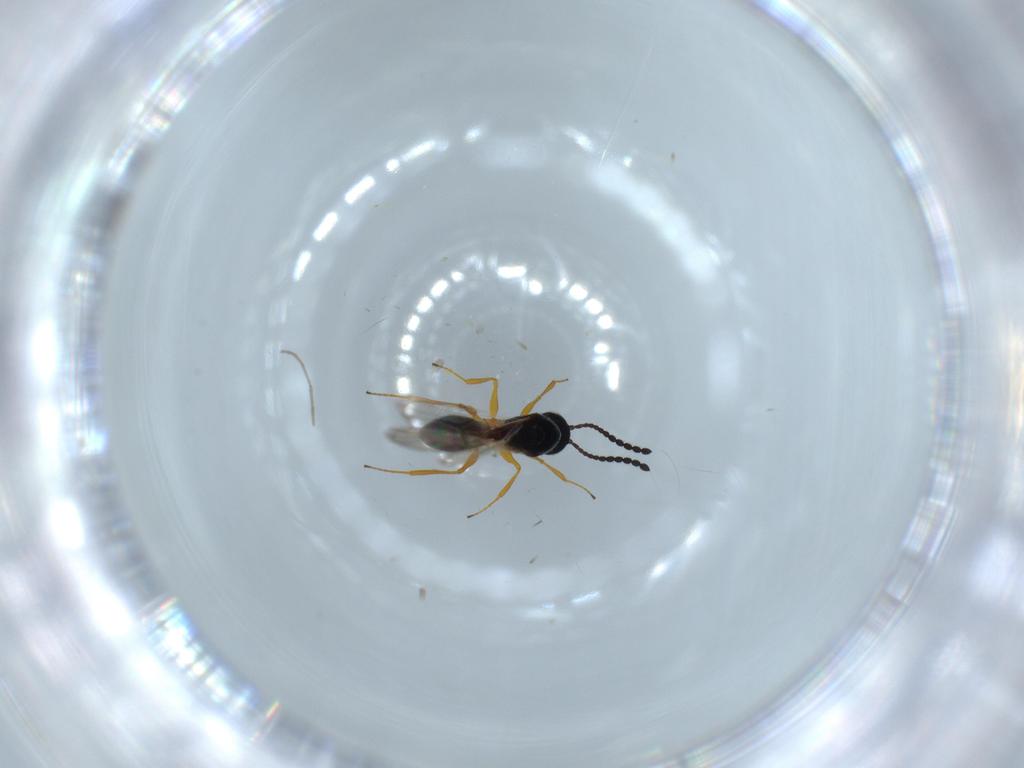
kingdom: Animalia
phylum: Arthropoda
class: Insecta
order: Hymenoptera
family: Figitidae
